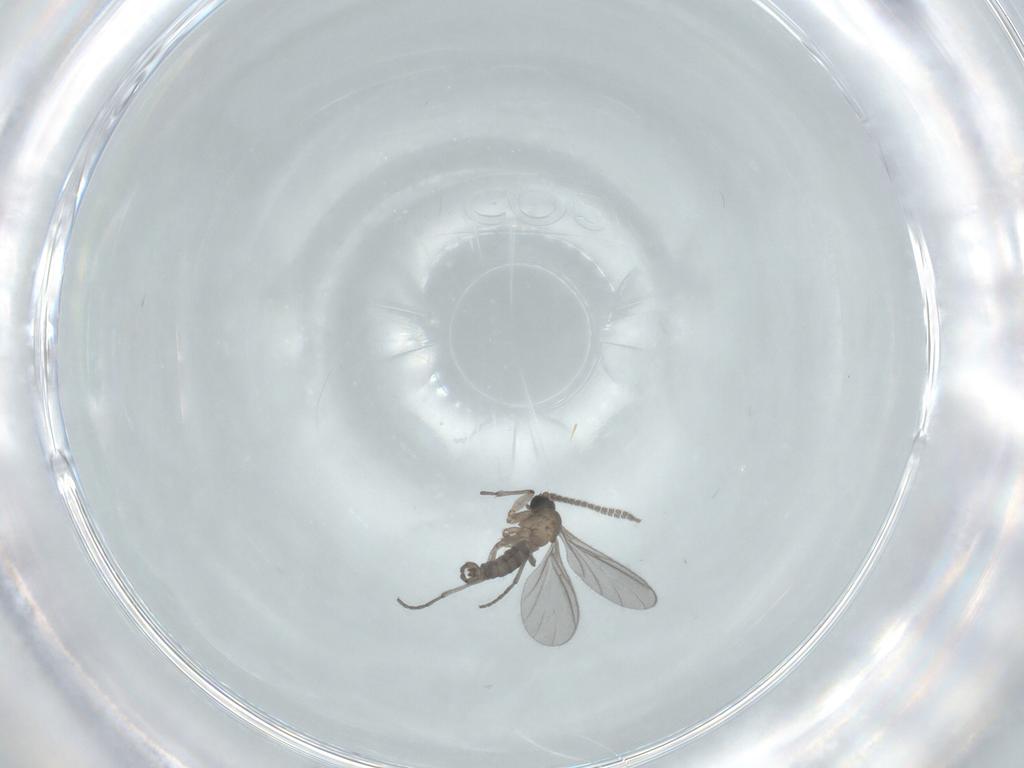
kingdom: Animalia
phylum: Arthropoda
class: Insecta
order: Diptera
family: Sciaridae
